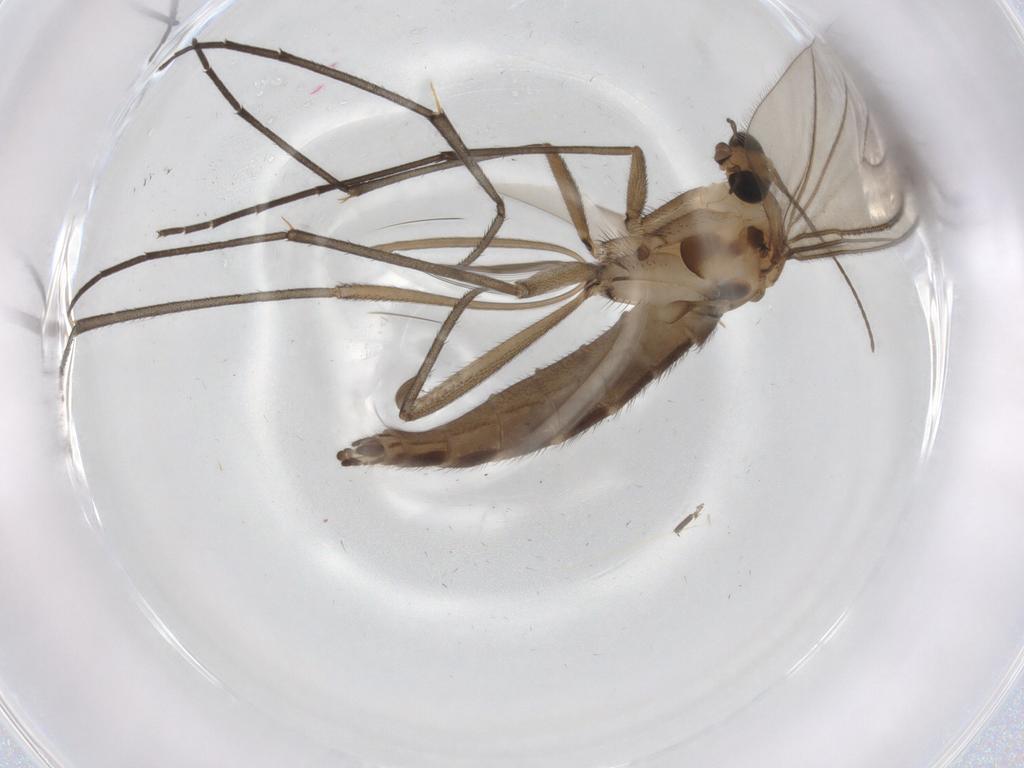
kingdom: Animalia
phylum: Arthropoda
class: Insecta
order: Diptera
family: Sciaridae
